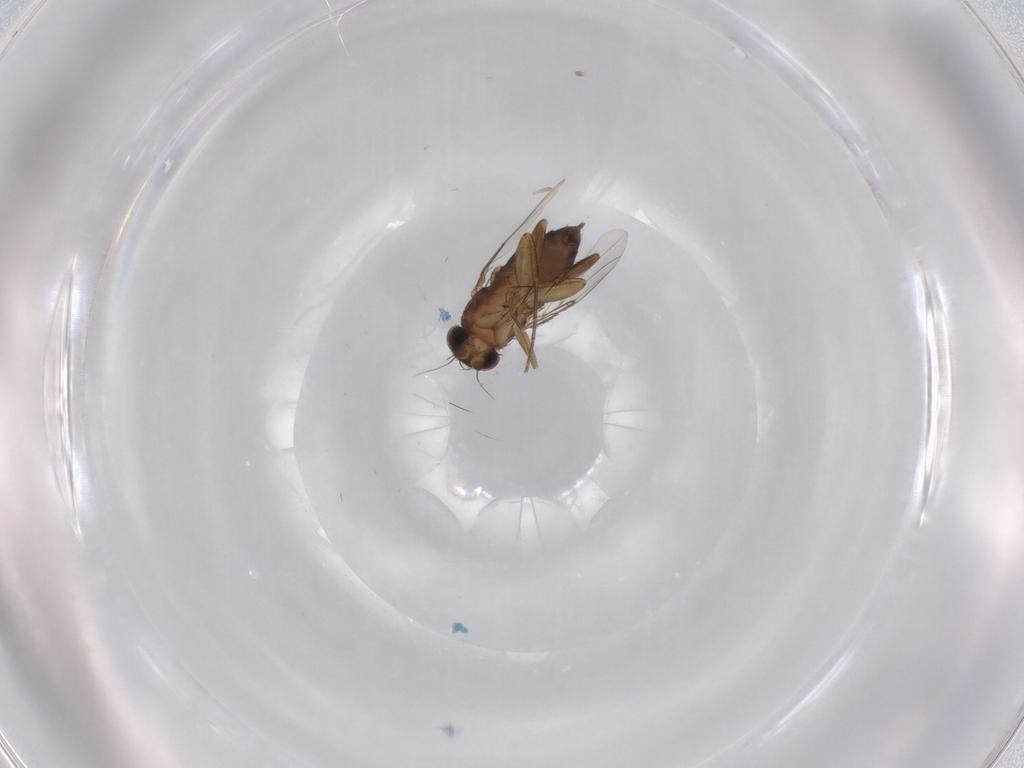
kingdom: Animalia
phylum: Arthropoda
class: Insecta
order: Diptera
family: Phoridae
